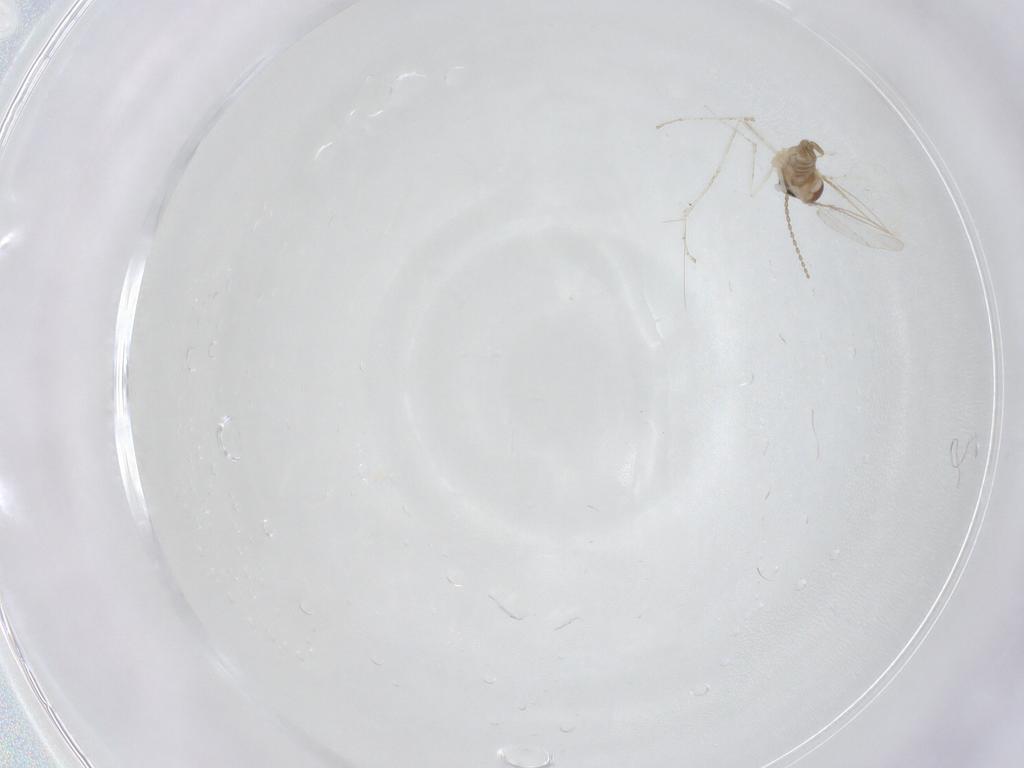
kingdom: Animalia
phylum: Arthropoda
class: Insecta
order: Diptera
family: Cecidomyiidae
